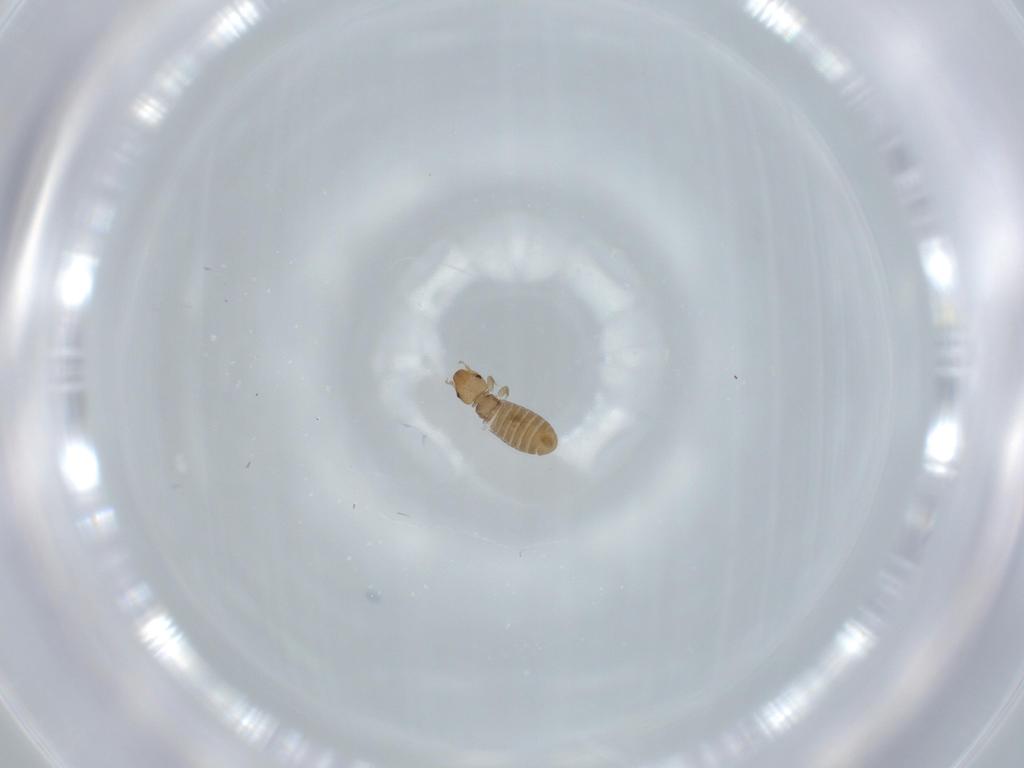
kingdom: Animalia
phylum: Arthropoda
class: Insecta
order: Psocodea
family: Liposcelididae
